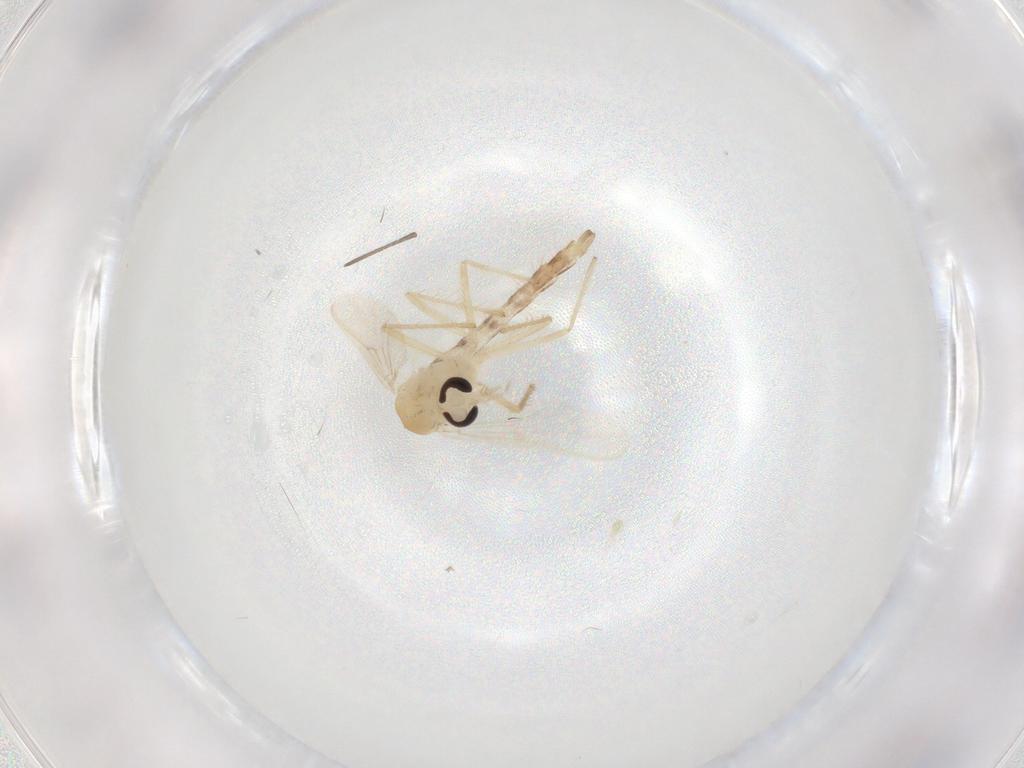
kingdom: Animalia
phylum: Arthropoda
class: Insecta
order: Diptera
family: Chironomidae
